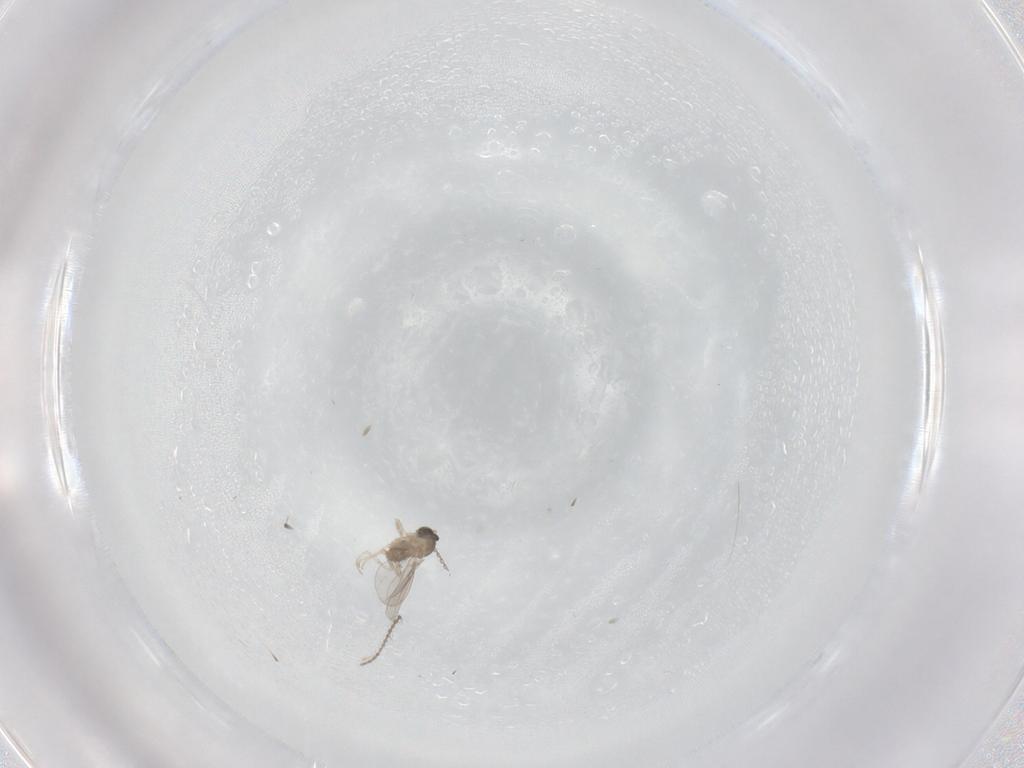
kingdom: Animalia
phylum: Arthropoda
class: Insecta
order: Diptera
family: Cecidomyiidae
